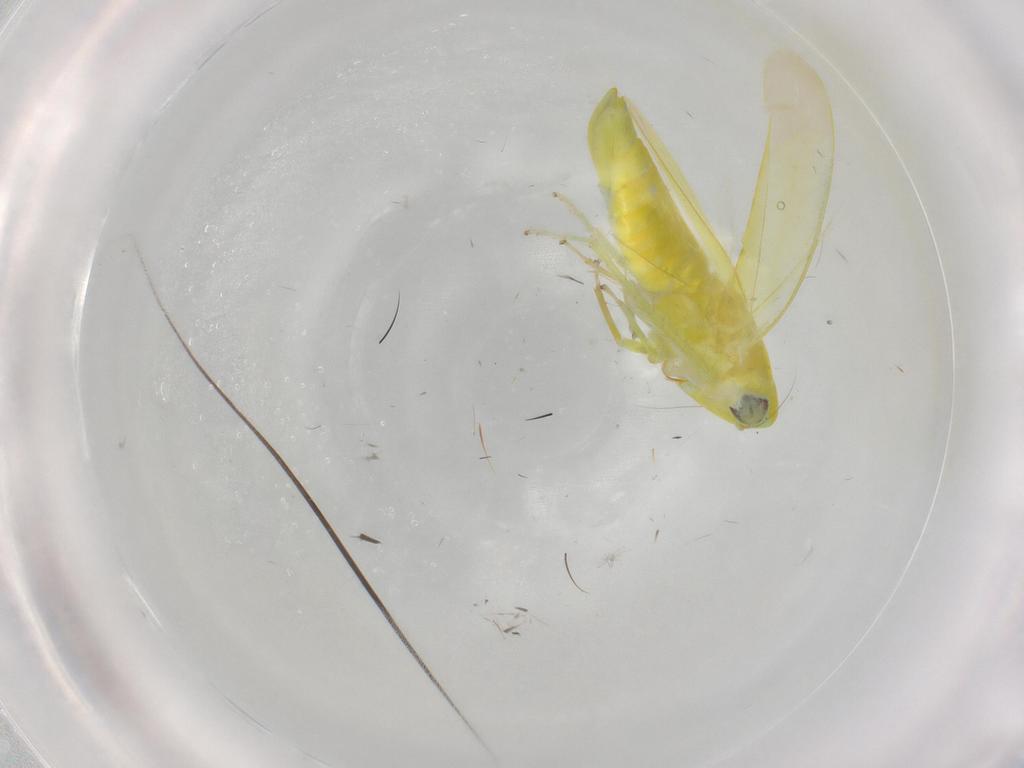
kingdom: Animalia
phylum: Arthropoda
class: Insecta
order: Hemiptera
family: Cicadellidae
